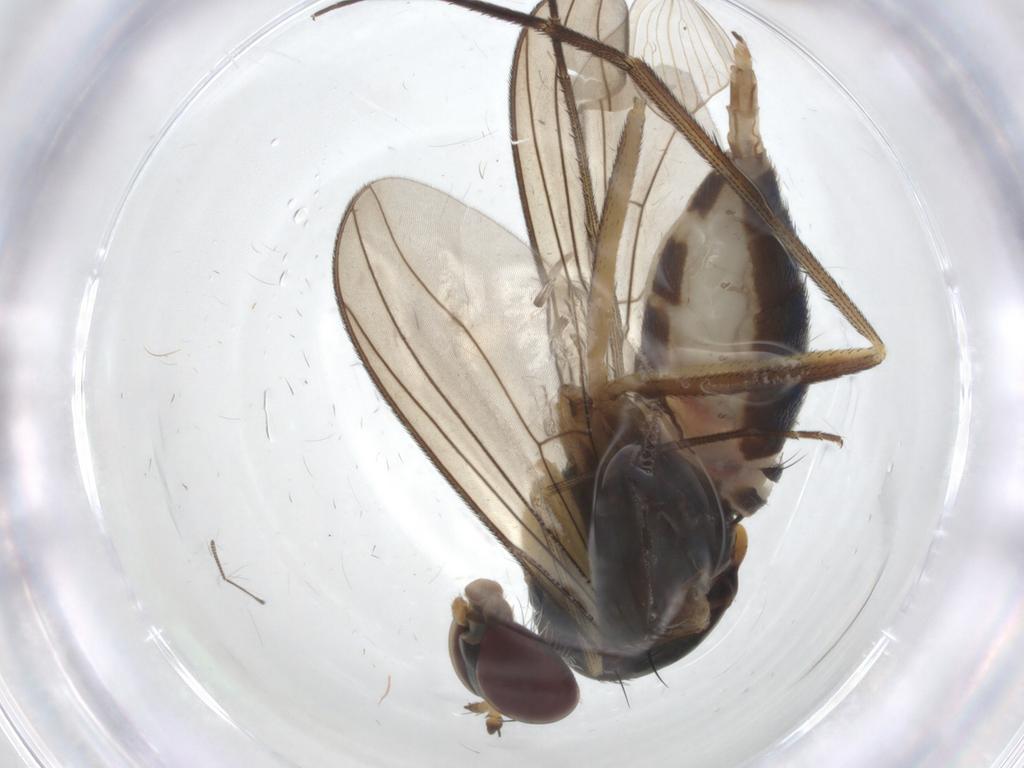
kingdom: Animalia
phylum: Arthropoda
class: Insecta
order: Diptera
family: Dolichopodidae
